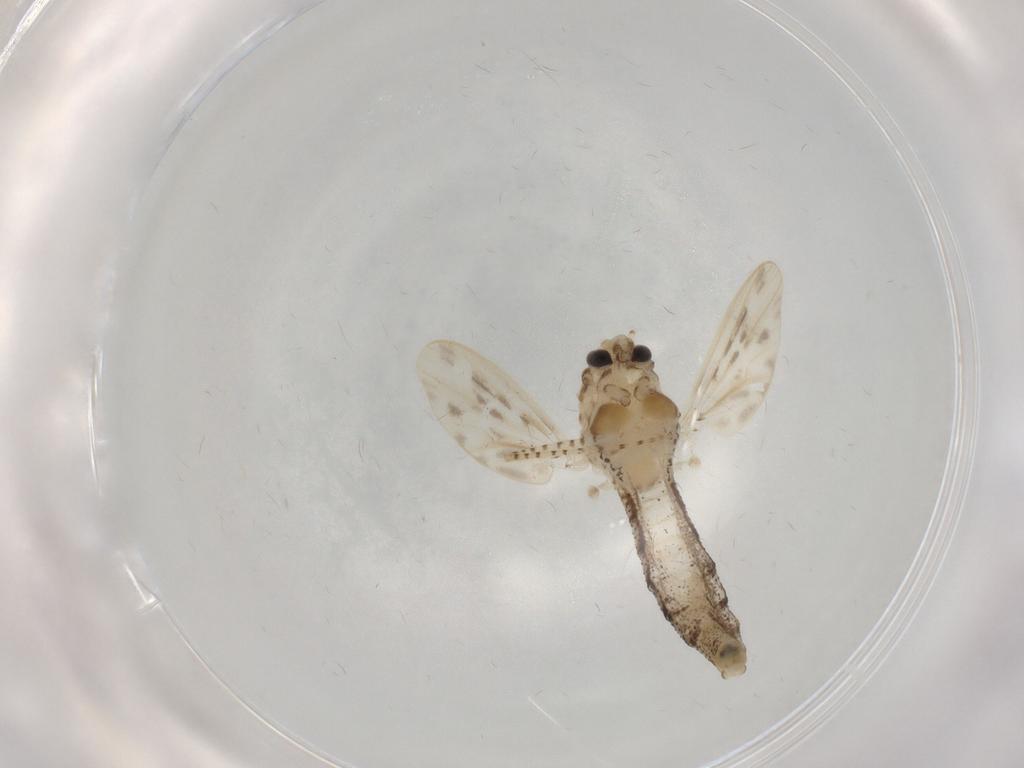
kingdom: Animalia
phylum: Arthropoda
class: Insecta
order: Diptera
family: Chaoboridae
